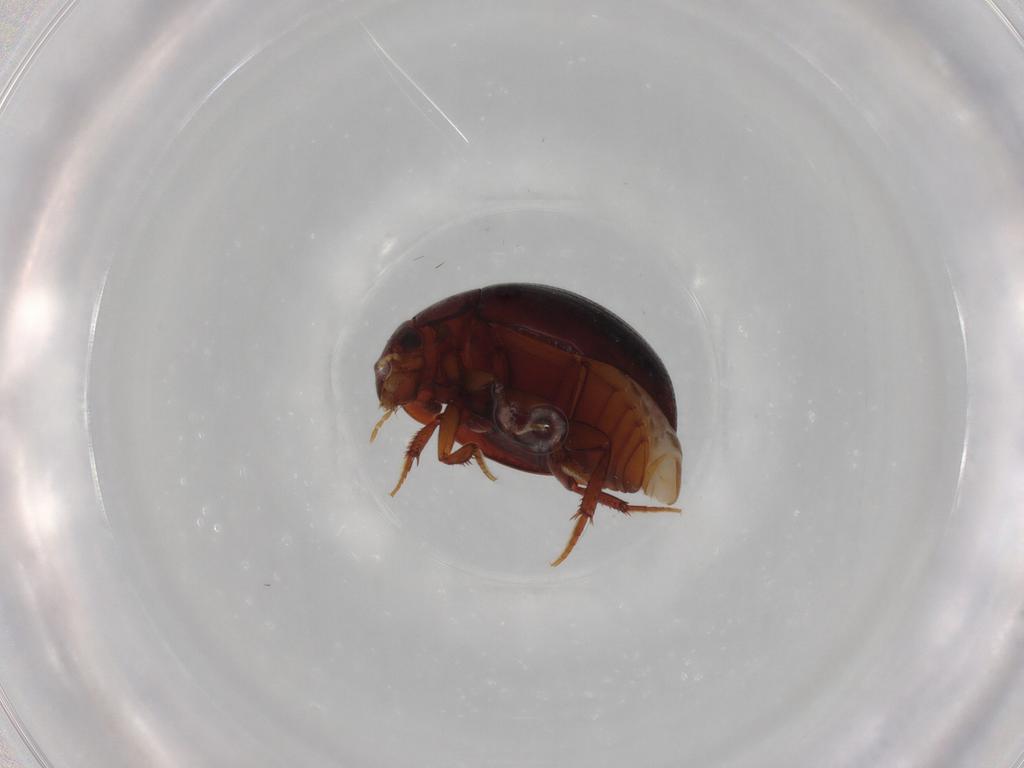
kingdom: Animalia
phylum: Arthropoda
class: Insecta
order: Coleoptera
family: Hydrophilidae
